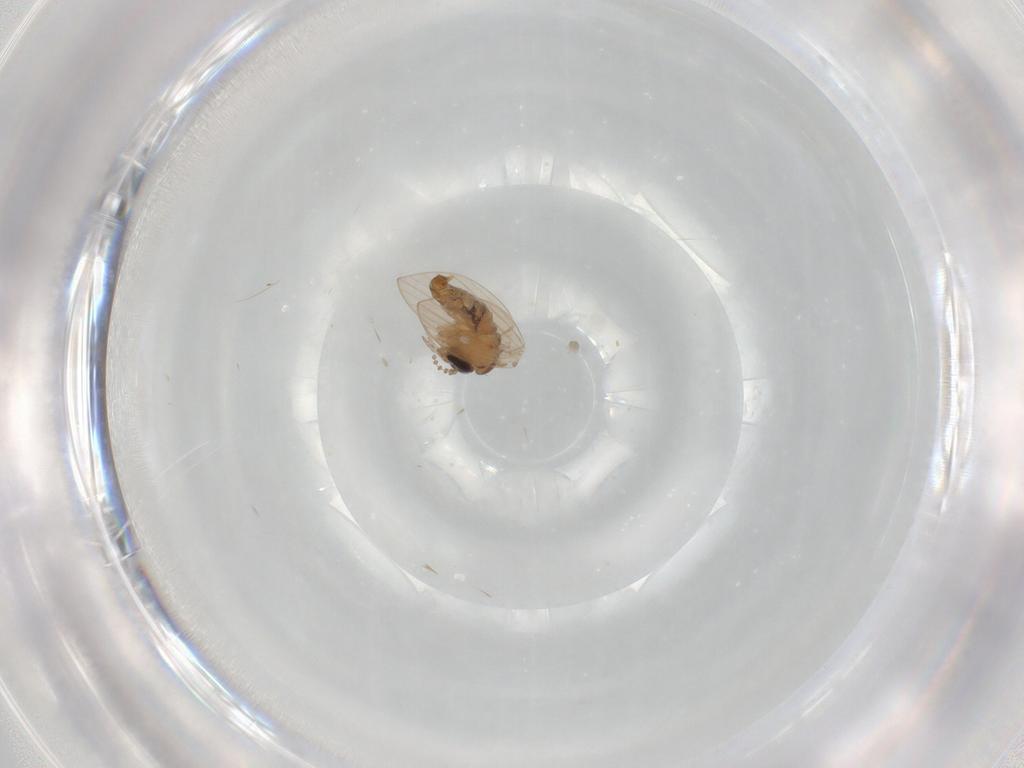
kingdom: Animalia
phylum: Arthropoda
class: Insecta
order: Diptera
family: Psychodidae
